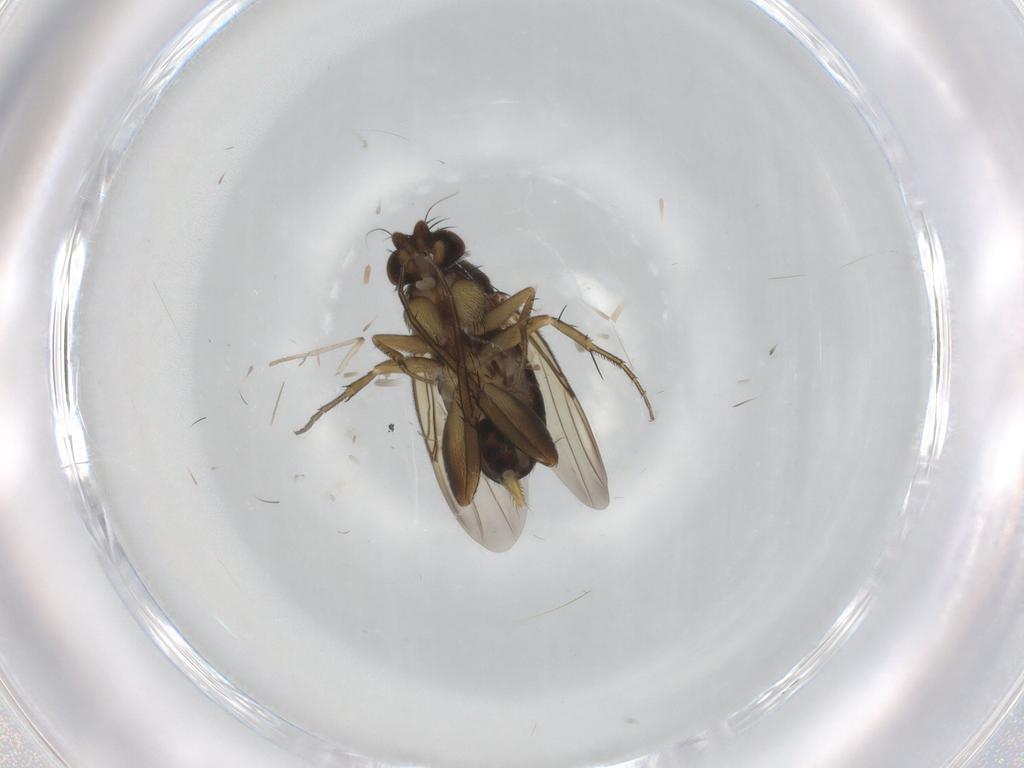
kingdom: Animalia
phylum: Arthropoda
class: Insecta
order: Diptera
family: Phoridae
